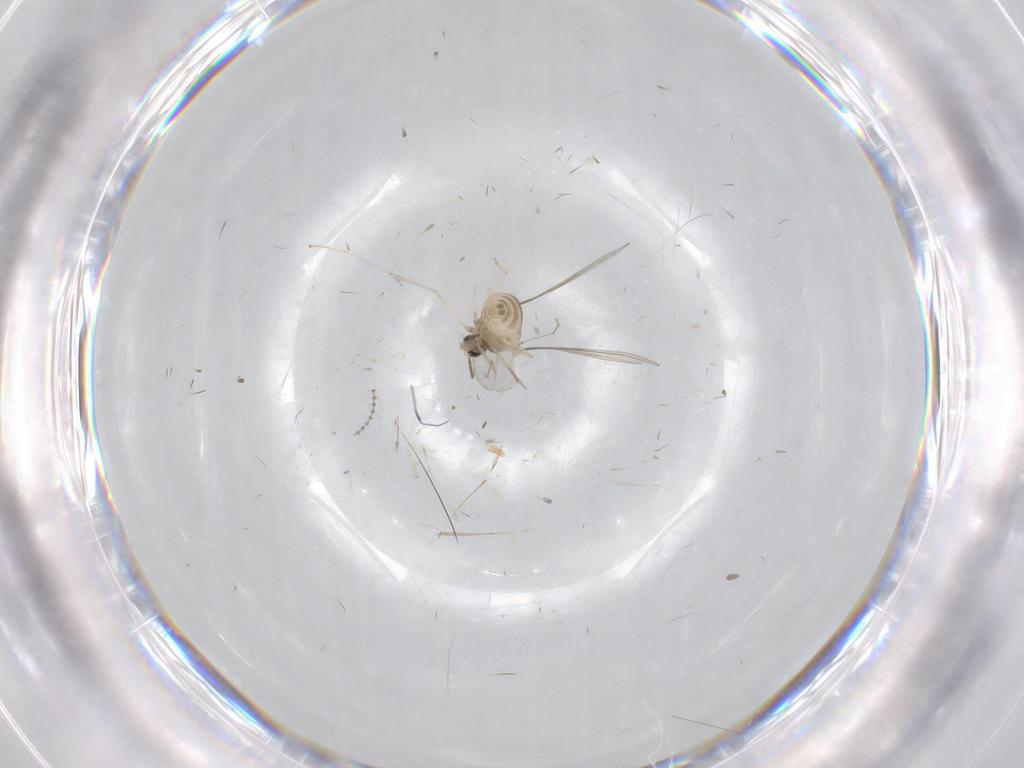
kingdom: Animalia
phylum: Arthropoda
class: Insecta
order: Diptera
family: Cecidomyiidae
